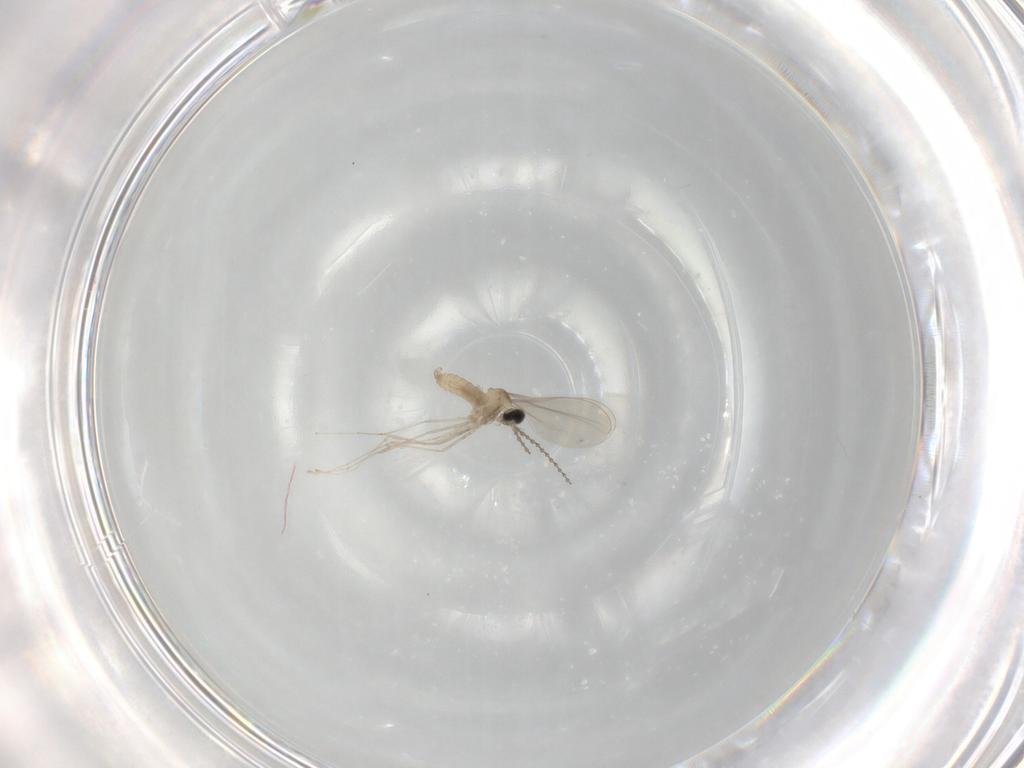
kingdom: Animalia
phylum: Arthropoda
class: Insecta
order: Diptera
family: Cecidomyiidae
